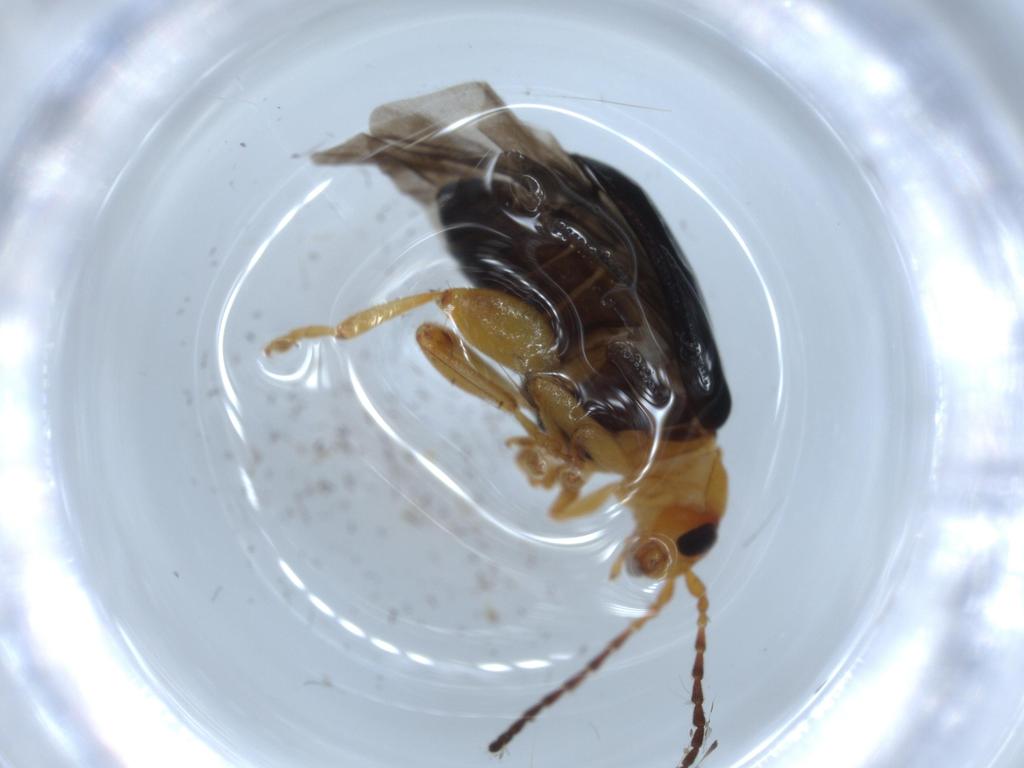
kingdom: Animalia
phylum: Arthropoda
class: Insecta
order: Coleoptera
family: Chrysomelidae
